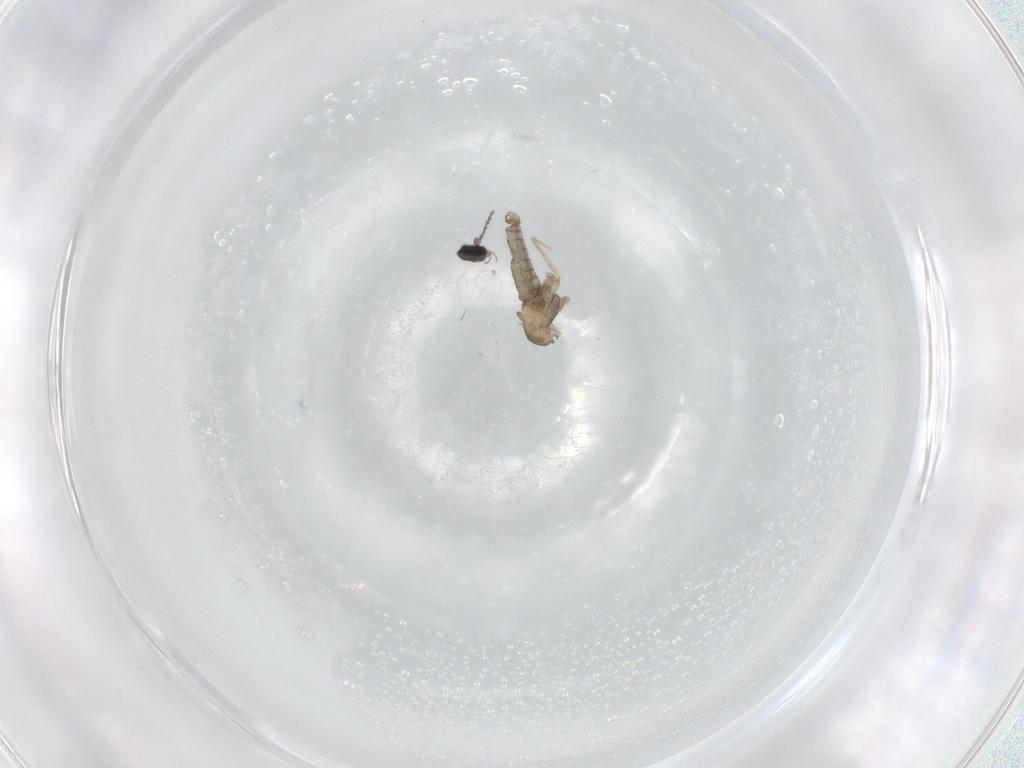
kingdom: Animalia
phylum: Arthropoda
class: Insecta
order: Diptera
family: Cecidomyiidae
